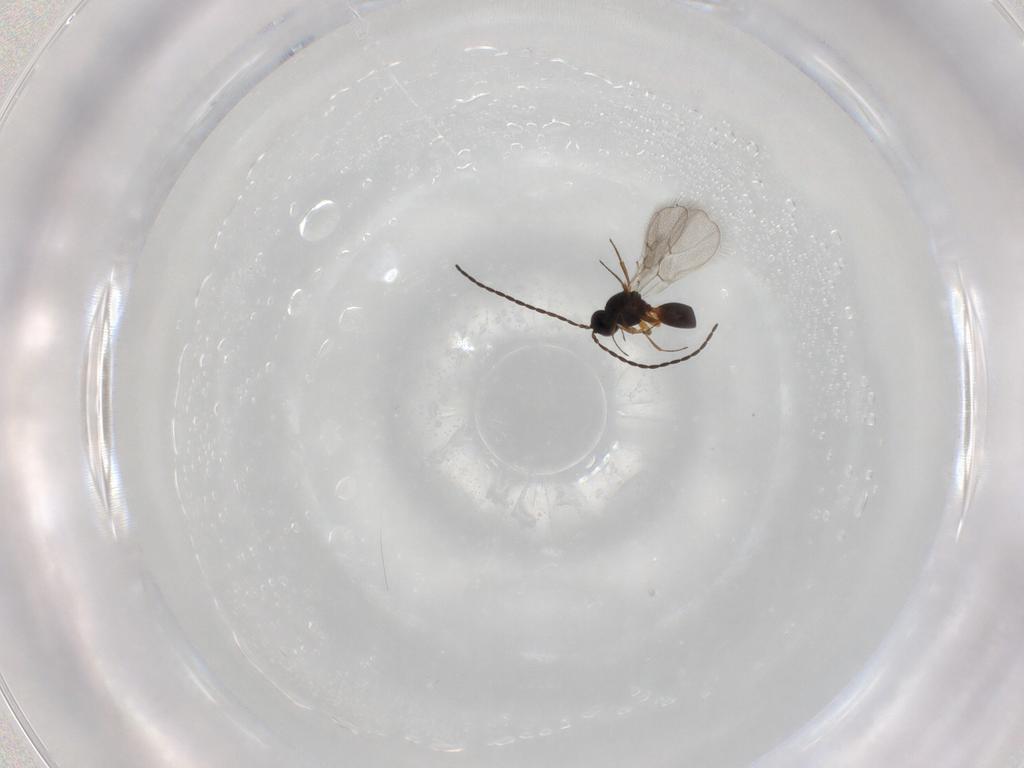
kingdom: Animalia
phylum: Arthropoda
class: Insecta
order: Hymenoptera
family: Figitidae
